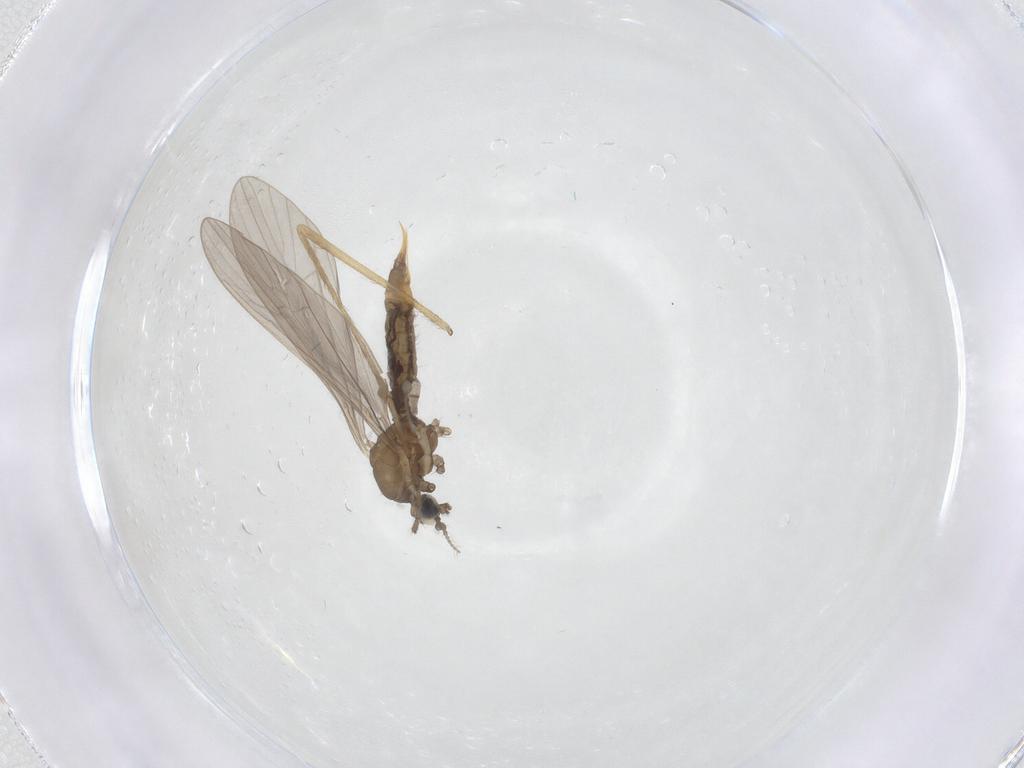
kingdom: Animalia
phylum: Arthropoda
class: Insecta
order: Diptera
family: Limoniidae
